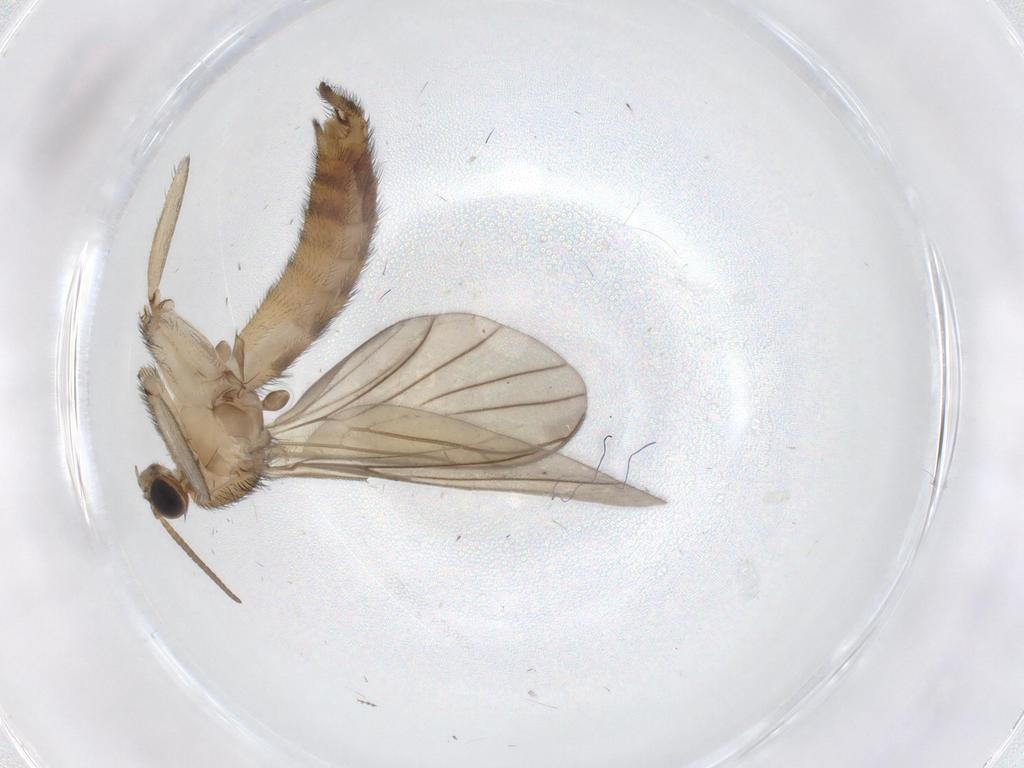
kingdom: Animalia
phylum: Arthropoda
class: Insecta
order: Diptera
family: Keroplatidae
